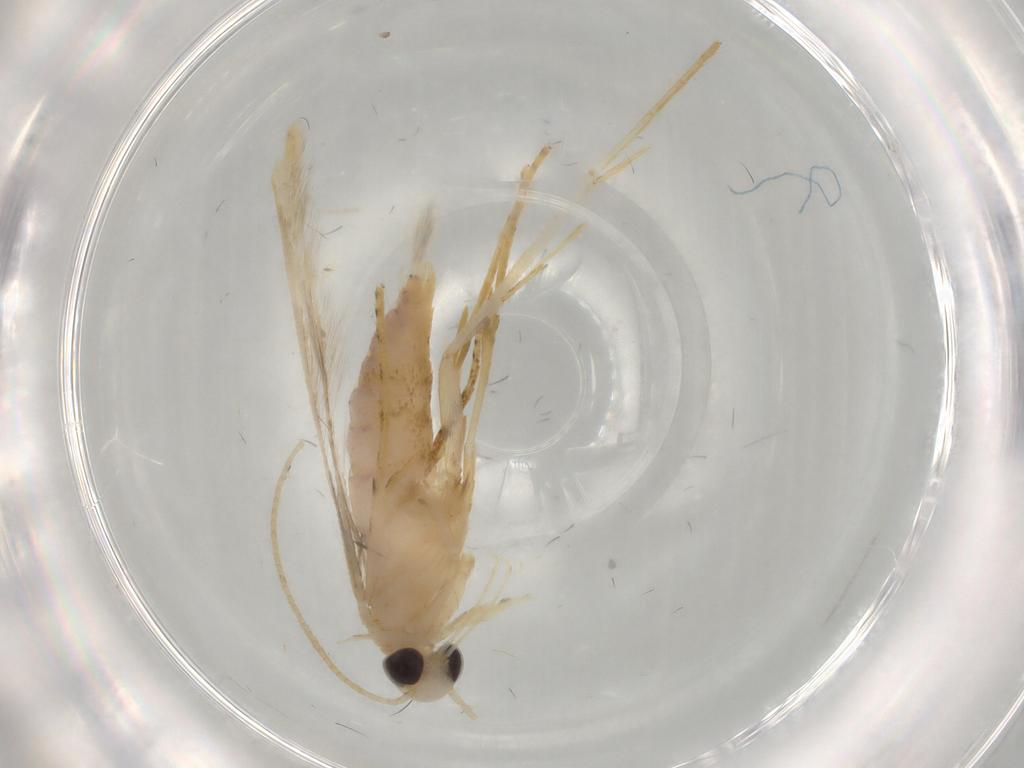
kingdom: Animalia
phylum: Arthropoda
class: Insecta
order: Lepidoptera
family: Batrachedridae
